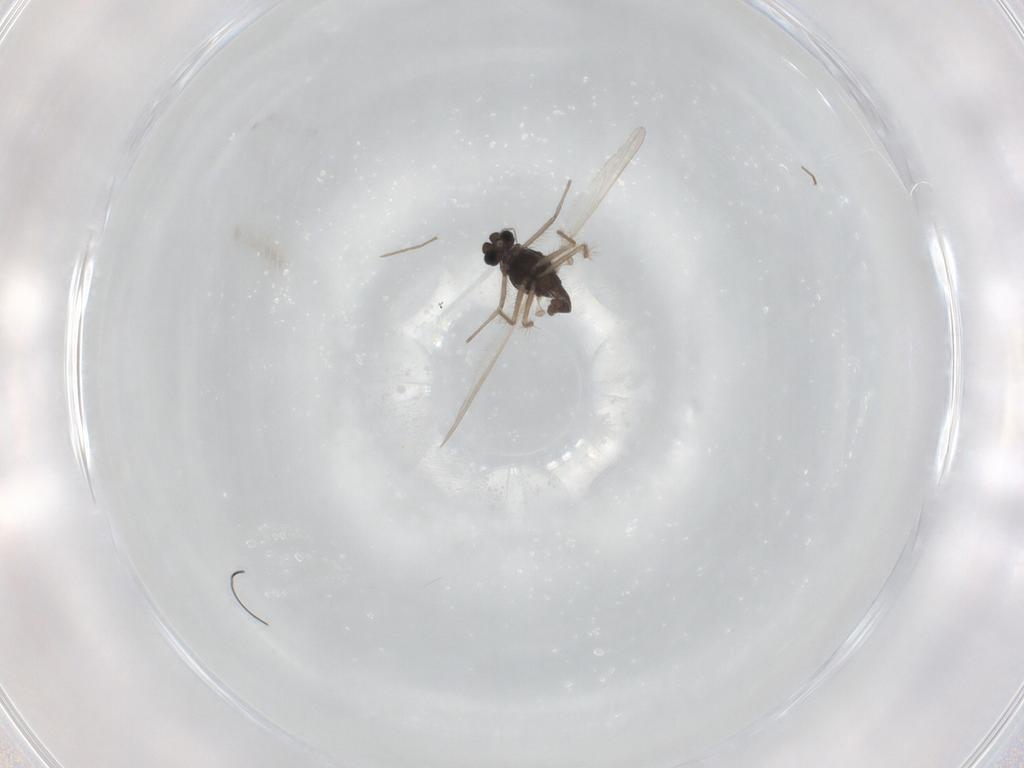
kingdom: Animalia
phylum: Arthropoda
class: Insecta
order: Diptera
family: Chironomidae
